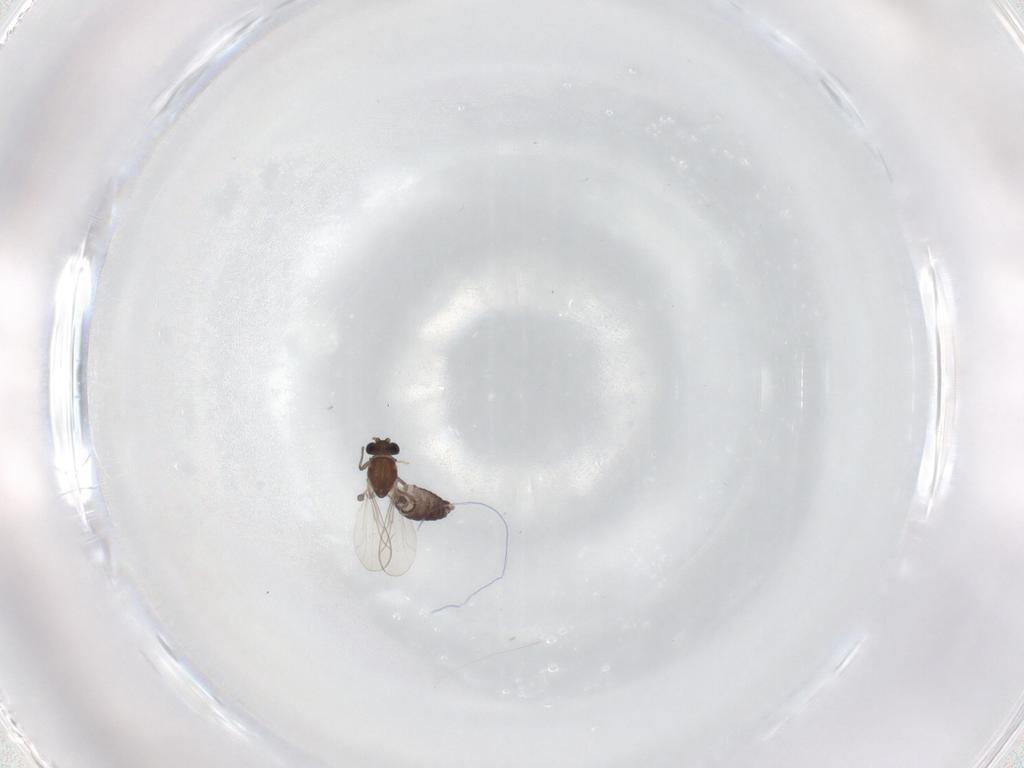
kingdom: Animalia
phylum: Arthropoda
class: Insecta
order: Diptera
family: Chironomidae
